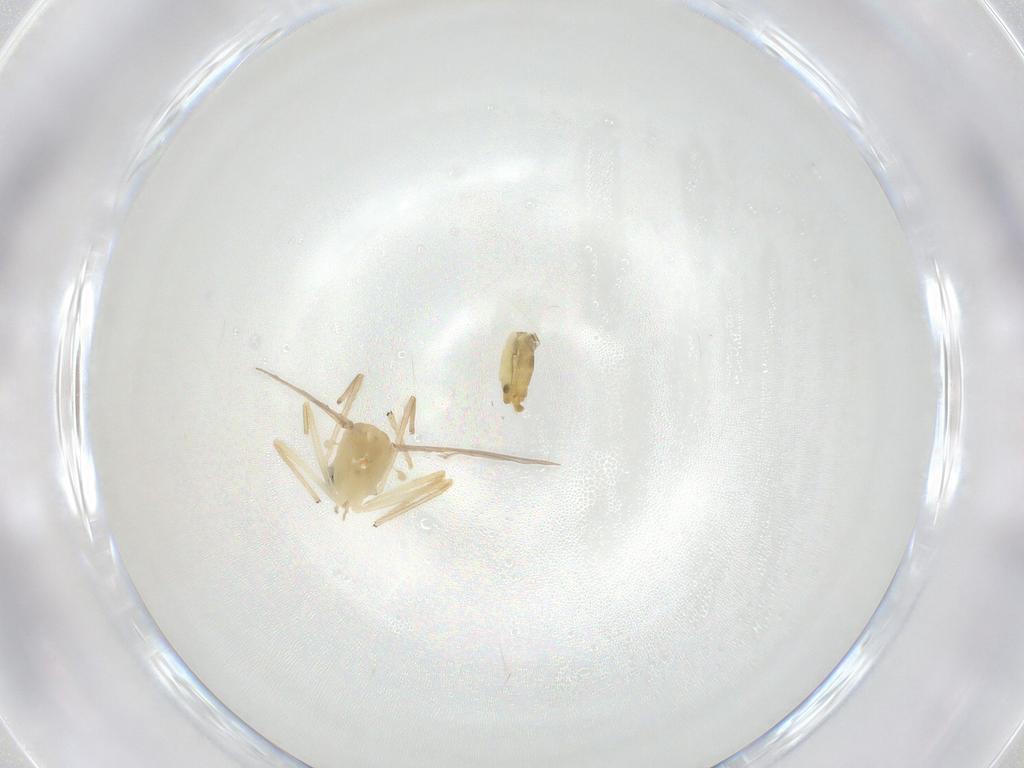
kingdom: Animalia
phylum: Arthropoda
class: Insecta
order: Diptera
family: Chironomidae
